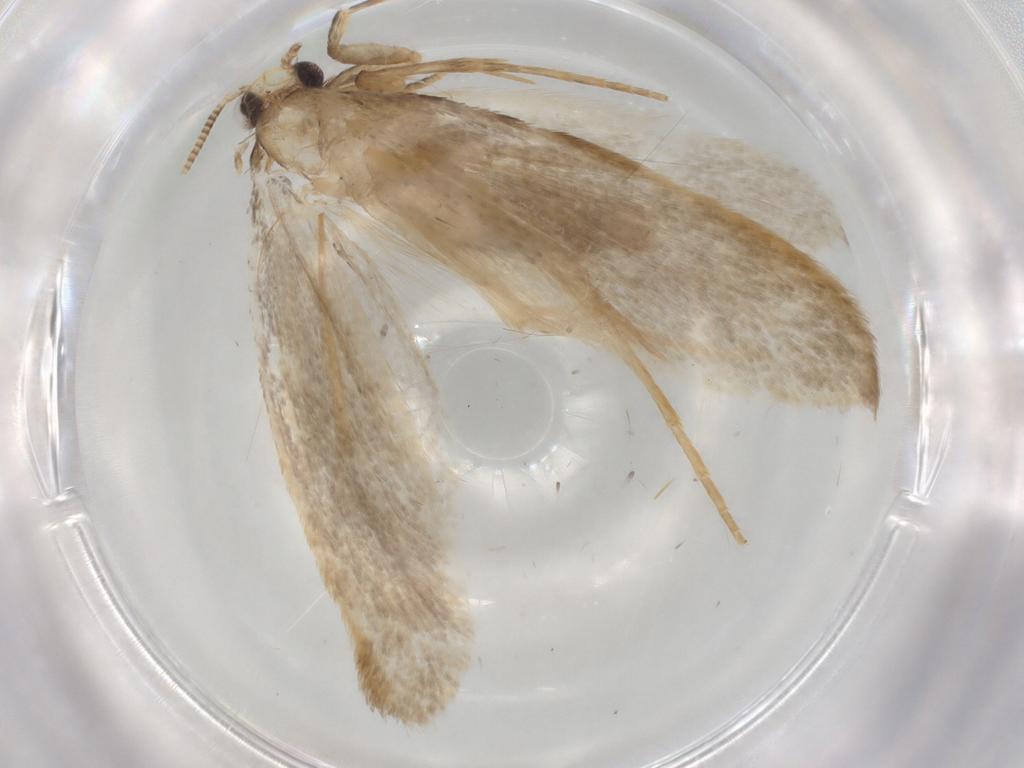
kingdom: Animalia
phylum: Arthropoda
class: Insecta
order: Lepidoptera
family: Tineidae
